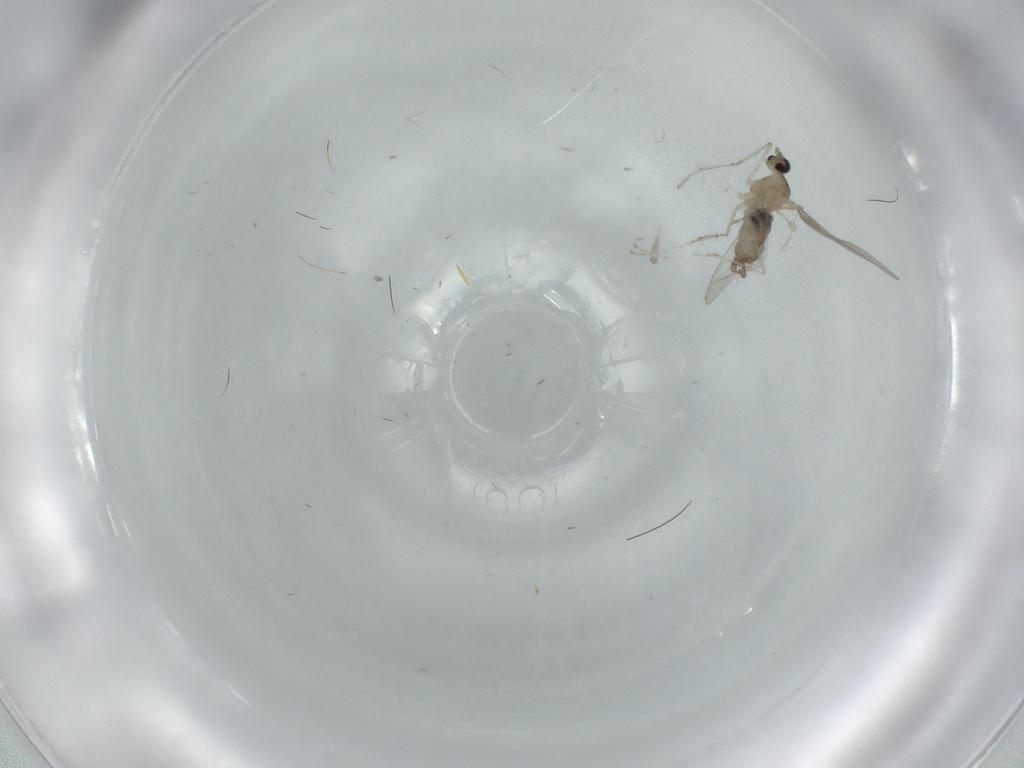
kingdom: Animalia
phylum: Arthropoda
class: Insecta
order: Diptera
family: Cecidomyiidae
